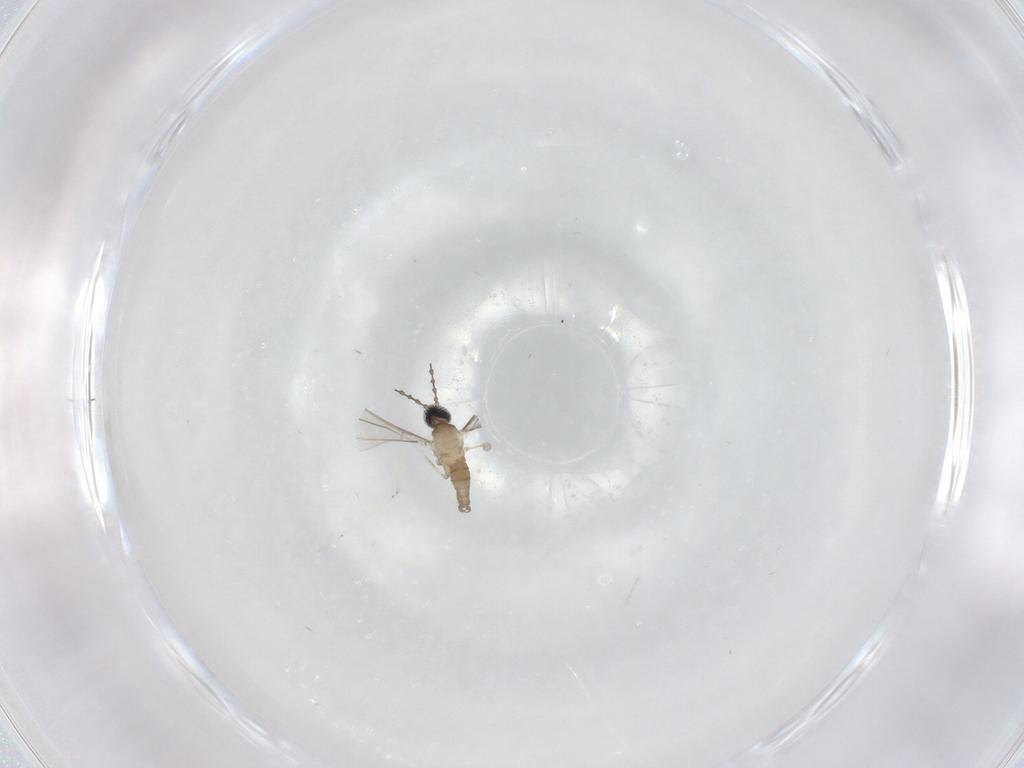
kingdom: Animalia
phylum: Arthropoda
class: Insecta
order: Diptera
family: Cecidomyiidae
